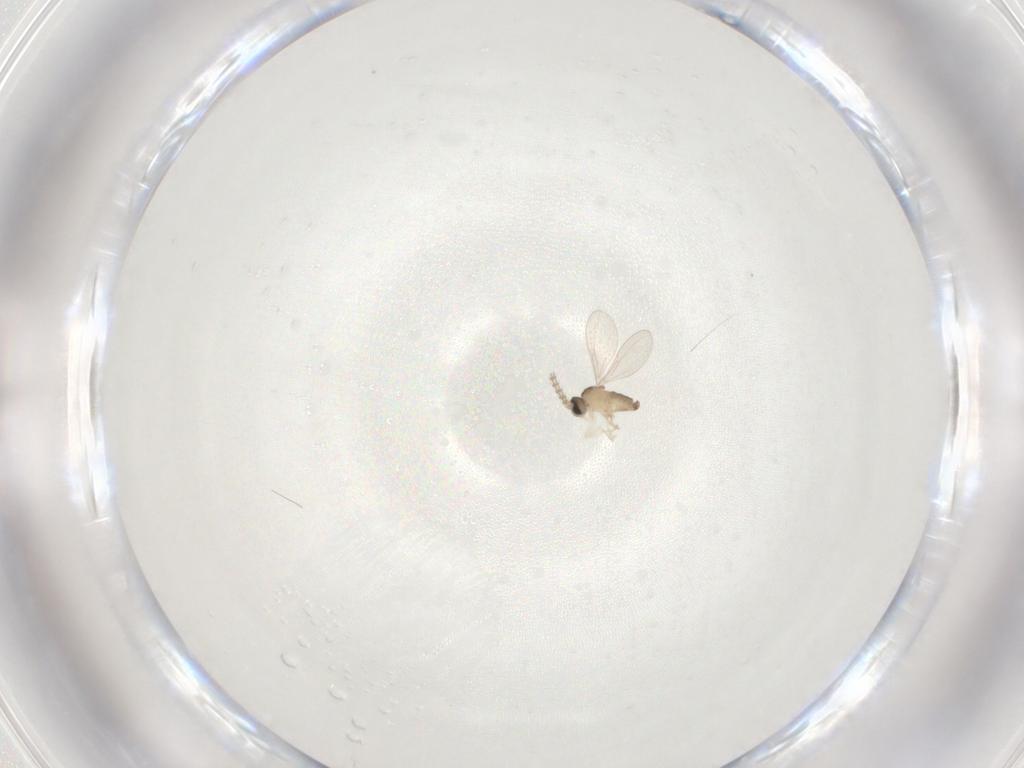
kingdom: Animalia
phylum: Arthropoda
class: Insecta
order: Diptera
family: Cecidomyiidae
